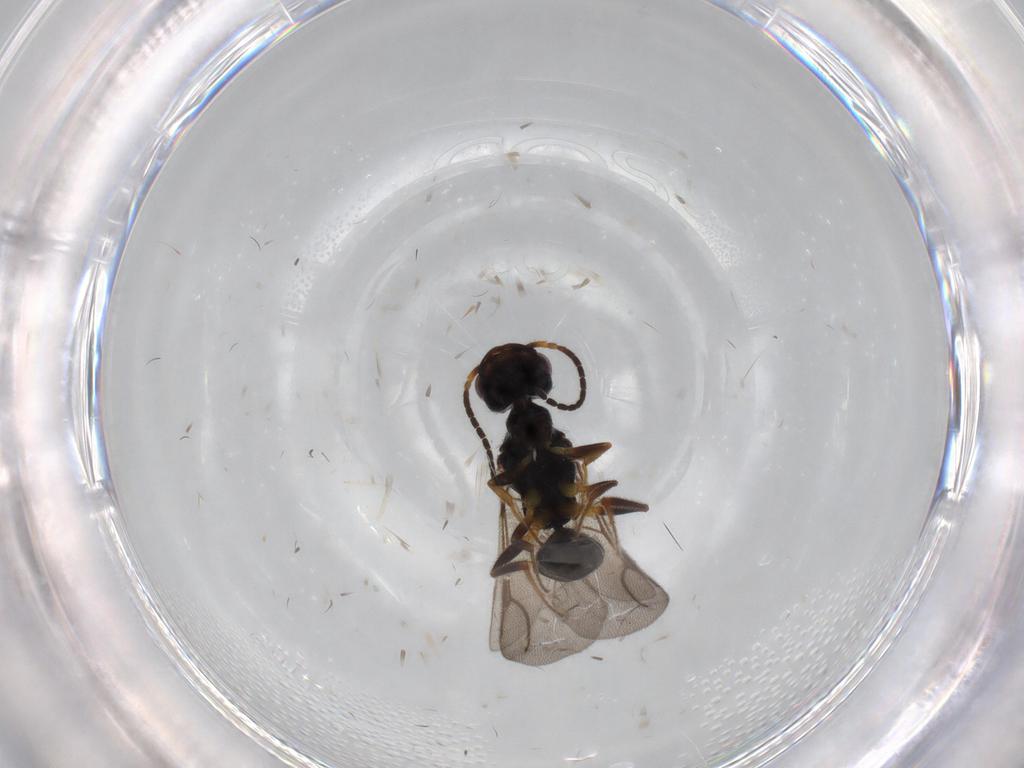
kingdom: Animalia
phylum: Arthropoda
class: Insecta
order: Hymenoptera
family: Bethylidae
